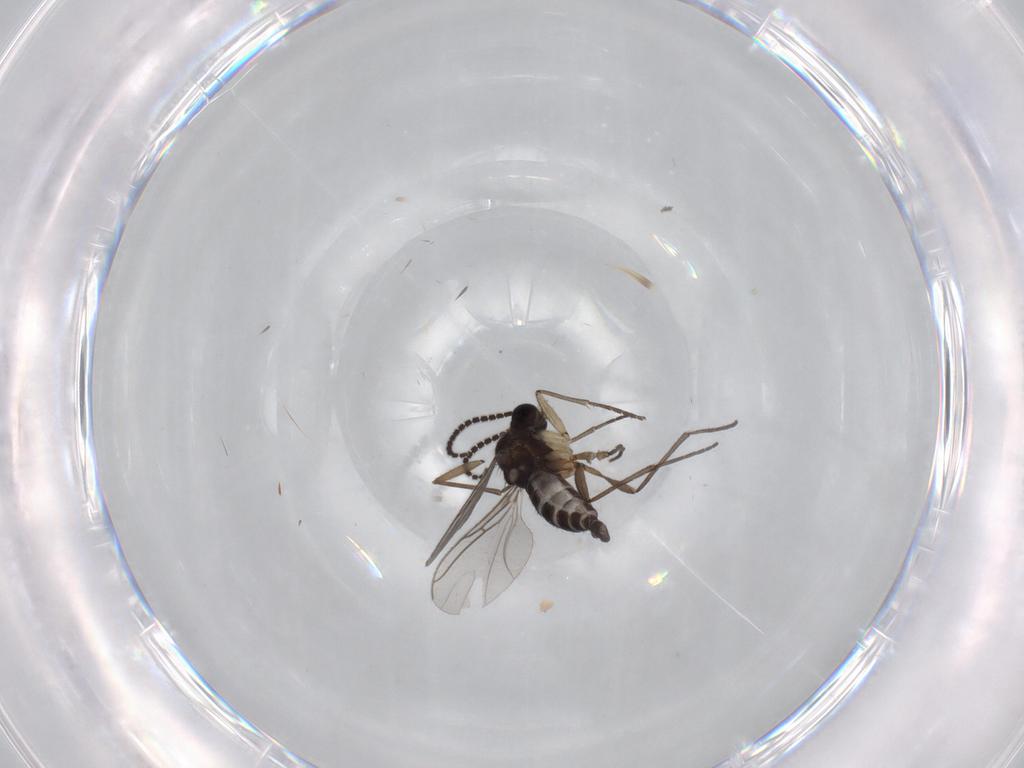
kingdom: Animalia
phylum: Arthropoda
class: Insecta
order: Diptera
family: Sciaridae
